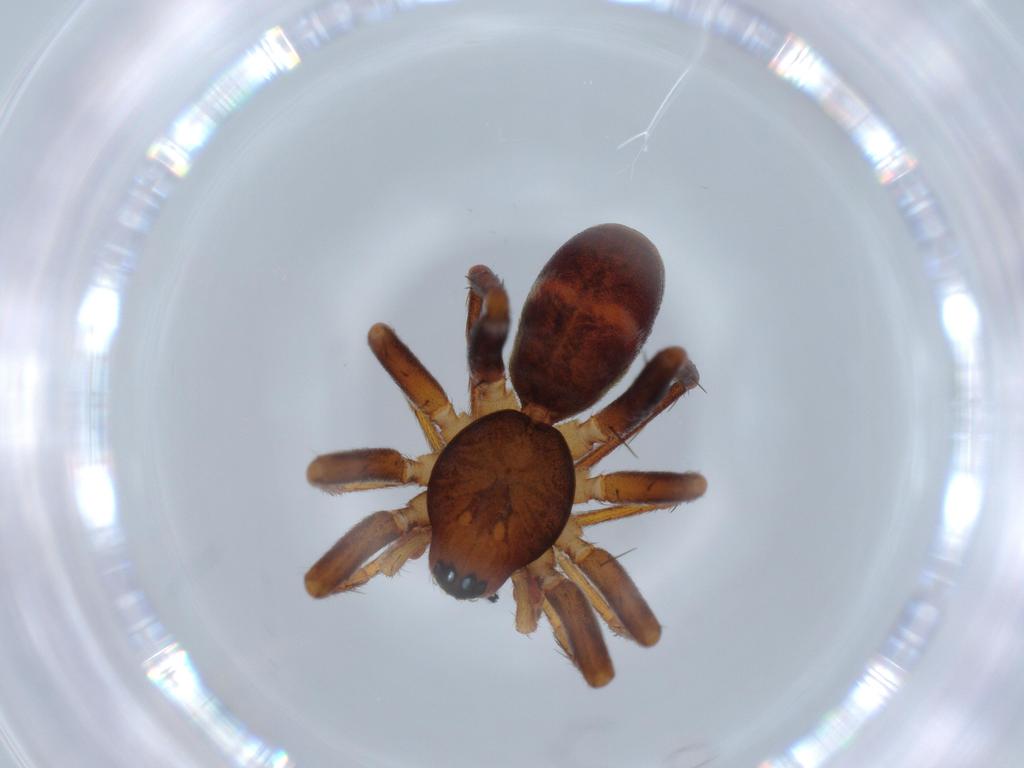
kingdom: Animalia
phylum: Arthropoda
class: Arachnida
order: Araneae
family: Corinnidae
